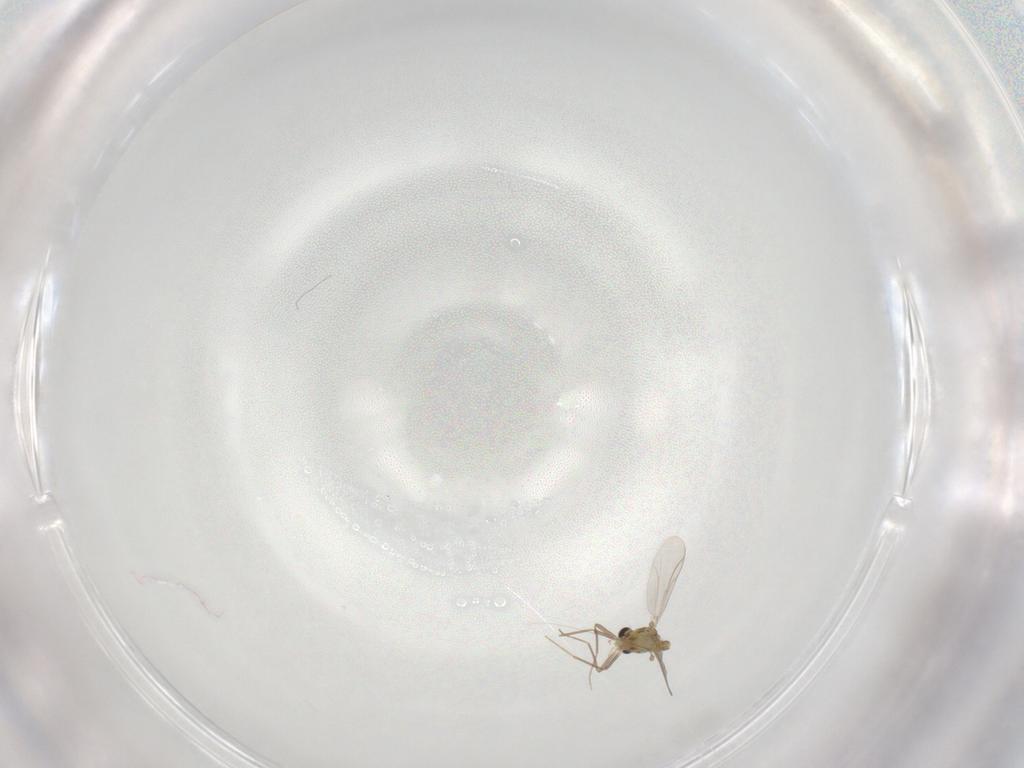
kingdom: Animalia
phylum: Arthropoda
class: Insecta
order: Diptera
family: Chironomidae
